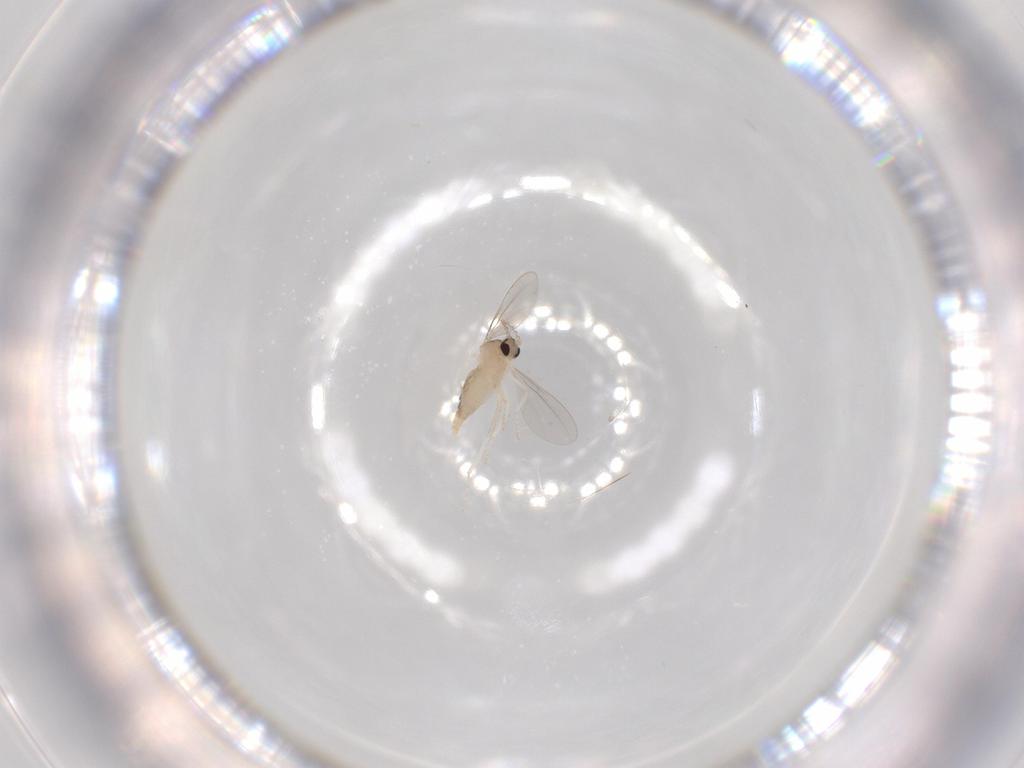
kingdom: Animalia
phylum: Arthropoda
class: Insecta
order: Diptera
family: Cecidomyiidae
